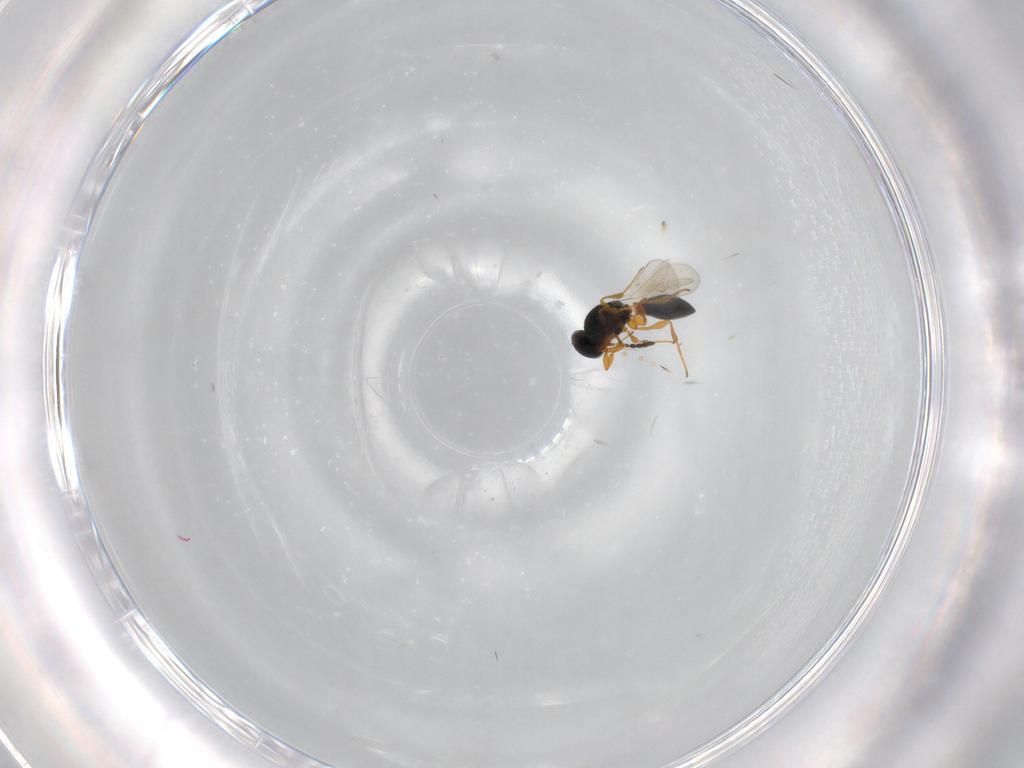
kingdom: Animalia
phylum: Arthropoda
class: Insecta
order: Hymenoptera
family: Platygastridae
